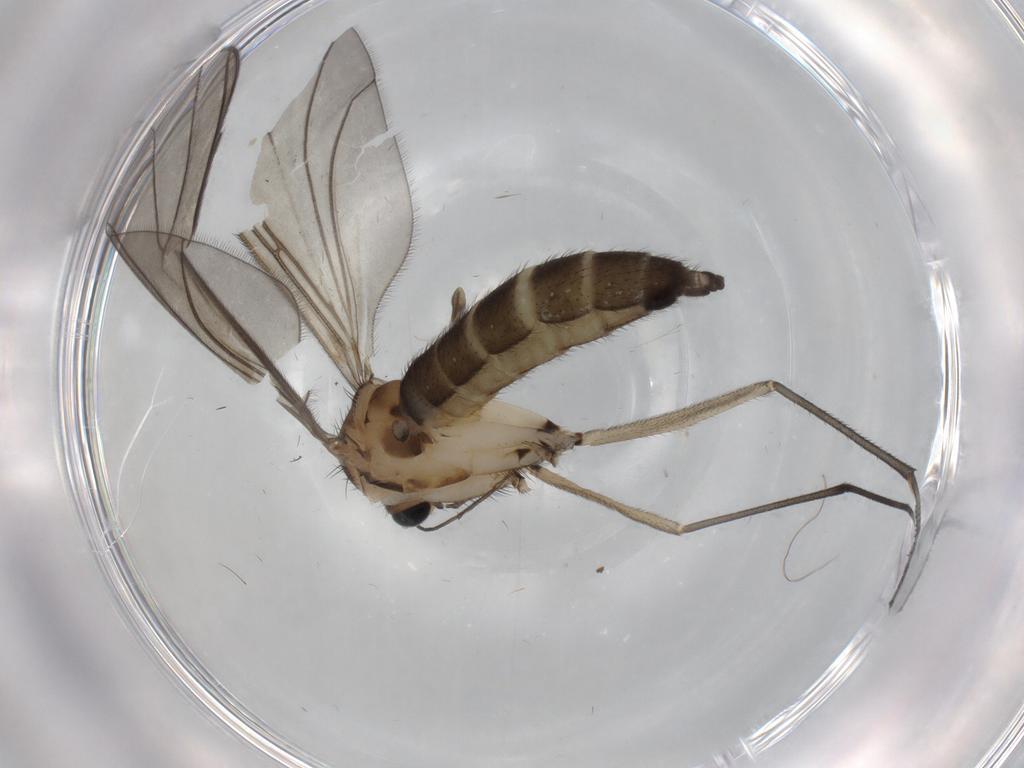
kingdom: Animalia
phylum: Arthropoda
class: Insecta
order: Diptera
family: Sciaridae
